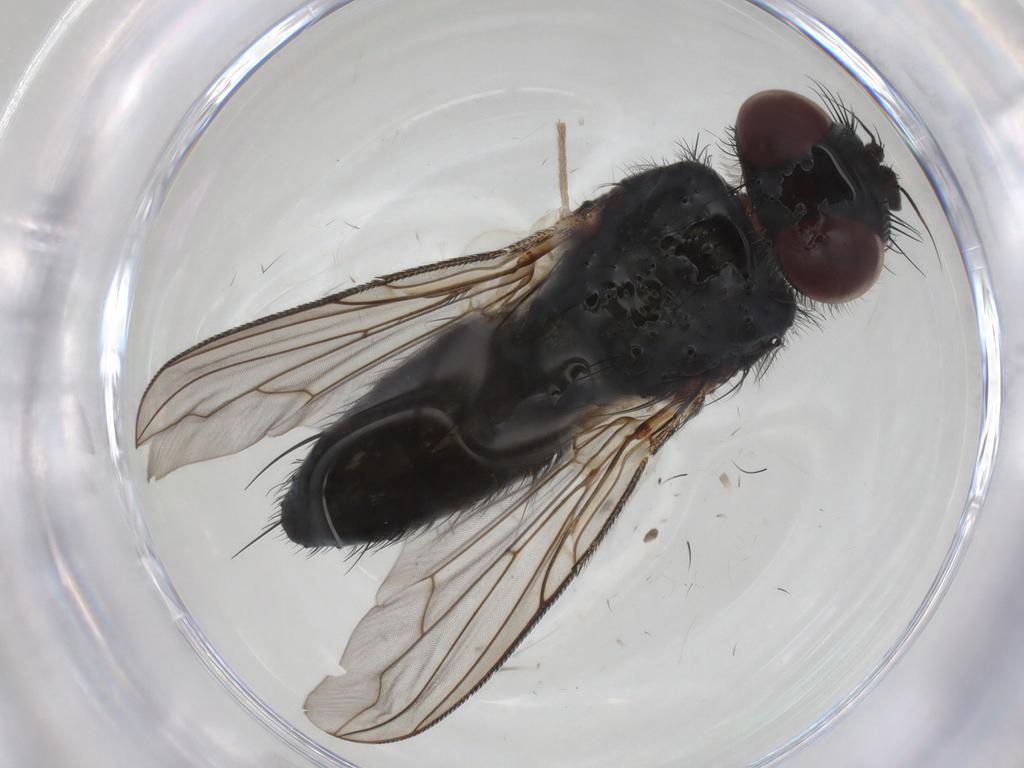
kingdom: Animalia
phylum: Arthropoda
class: Insecta
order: Diptera
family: Tachinidae
